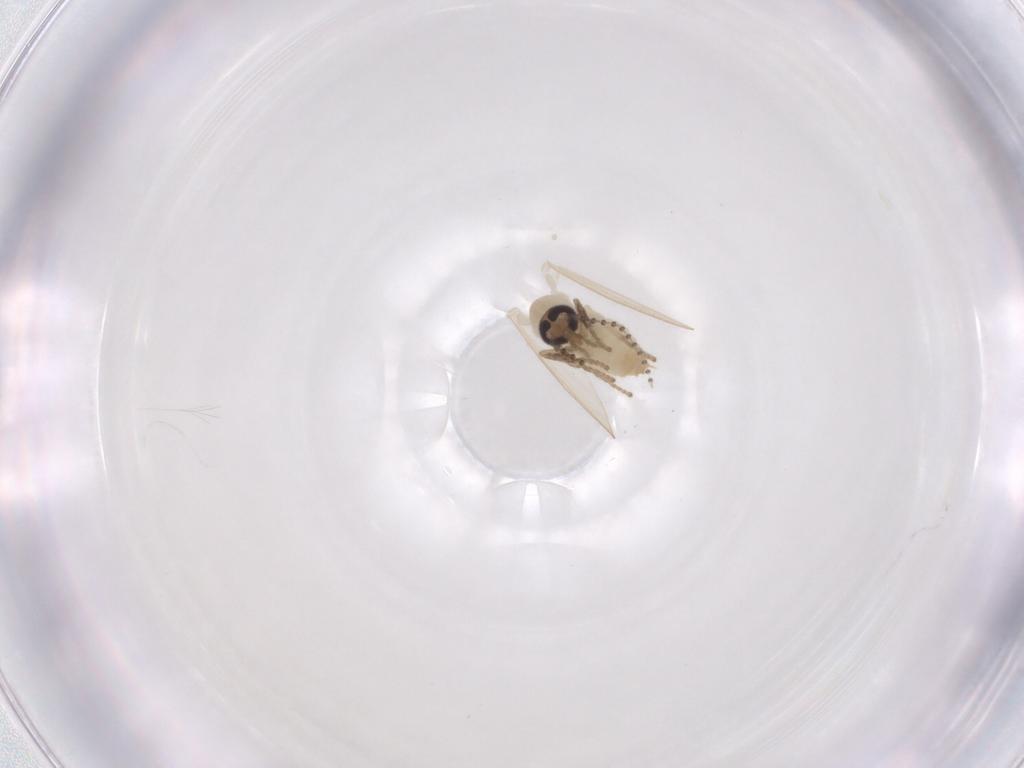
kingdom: Animalia
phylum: Arthropoda
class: Insecta
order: Diptera
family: Psychodidae
